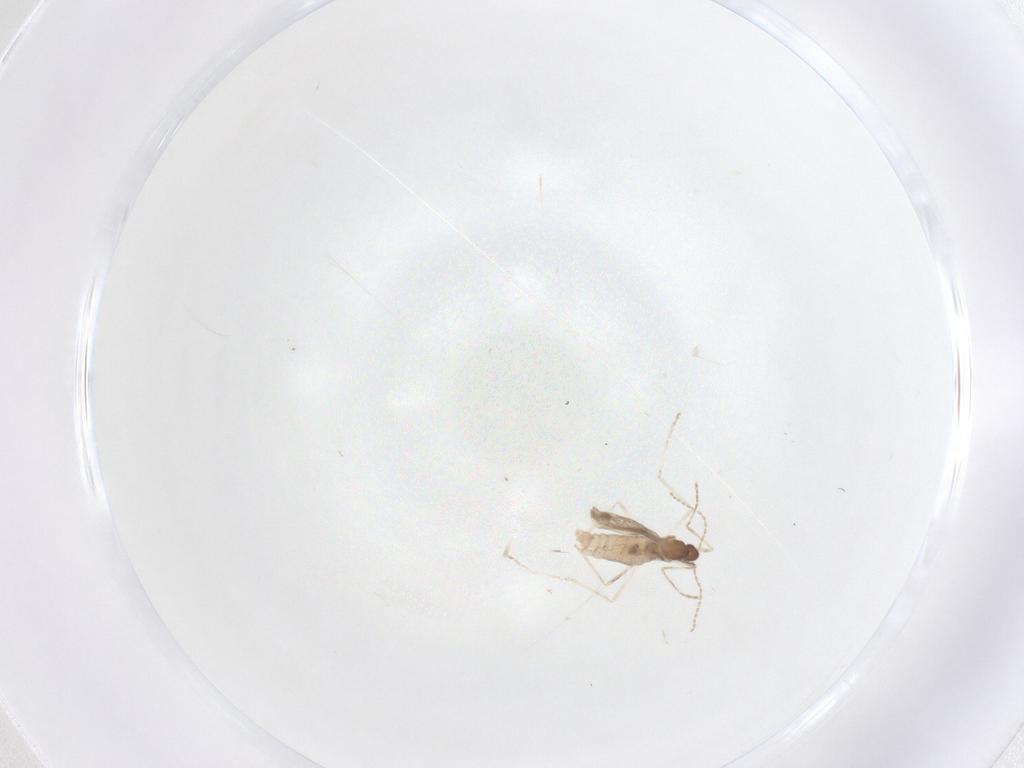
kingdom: Animalia
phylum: Arthropoda
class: Insecta
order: Diptera
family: Cecidomyiidae
